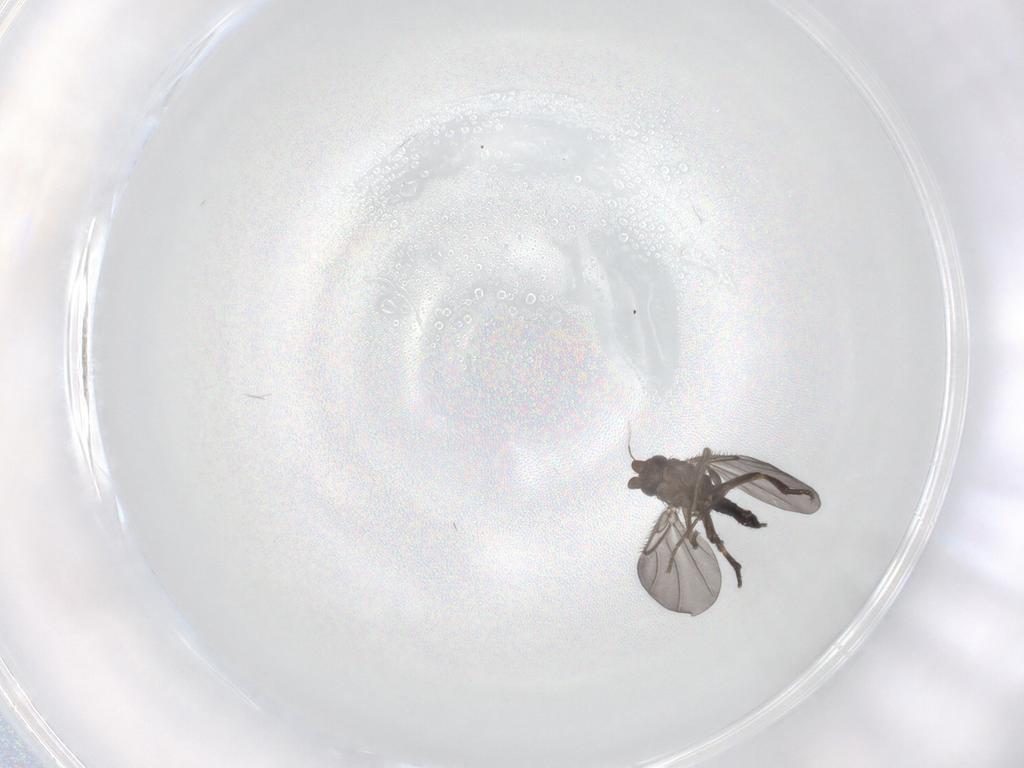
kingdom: Animalia
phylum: Arthropoda
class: Insecta
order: Diptera
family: Phoridae
